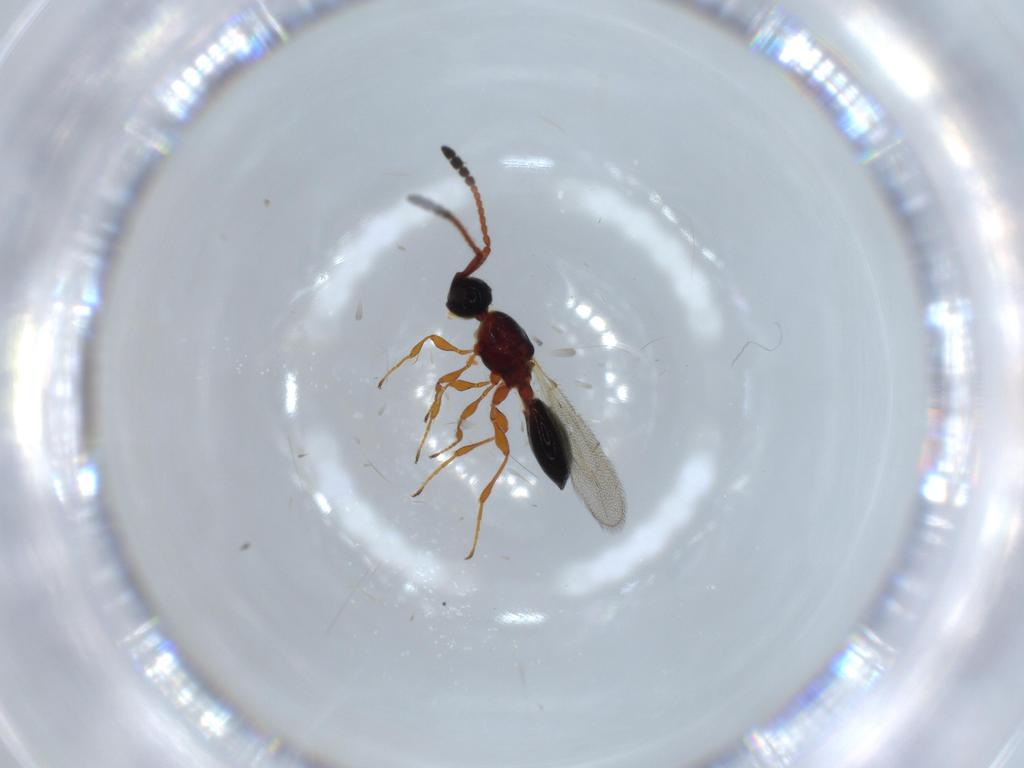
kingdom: Animalia
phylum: Arthropoda
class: Insecta
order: Hymenoptera
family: Diapriidae
